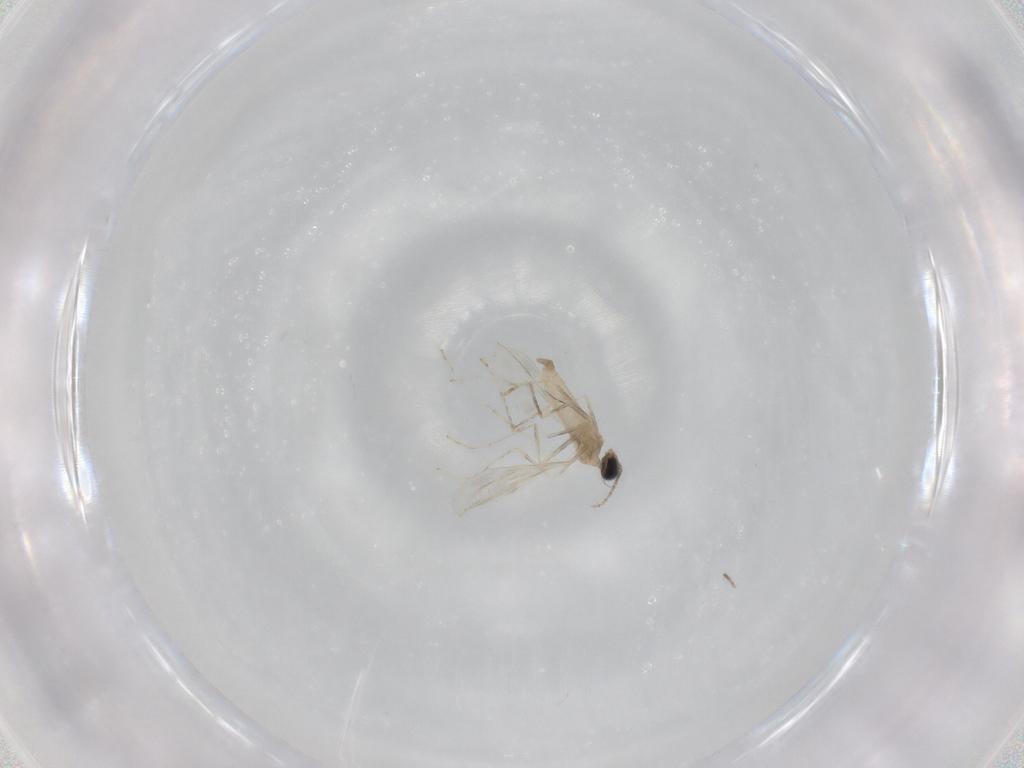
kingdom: Animalia
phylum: Arthropoda
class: Insecta
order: Diptera
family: Cecidomyiidae
